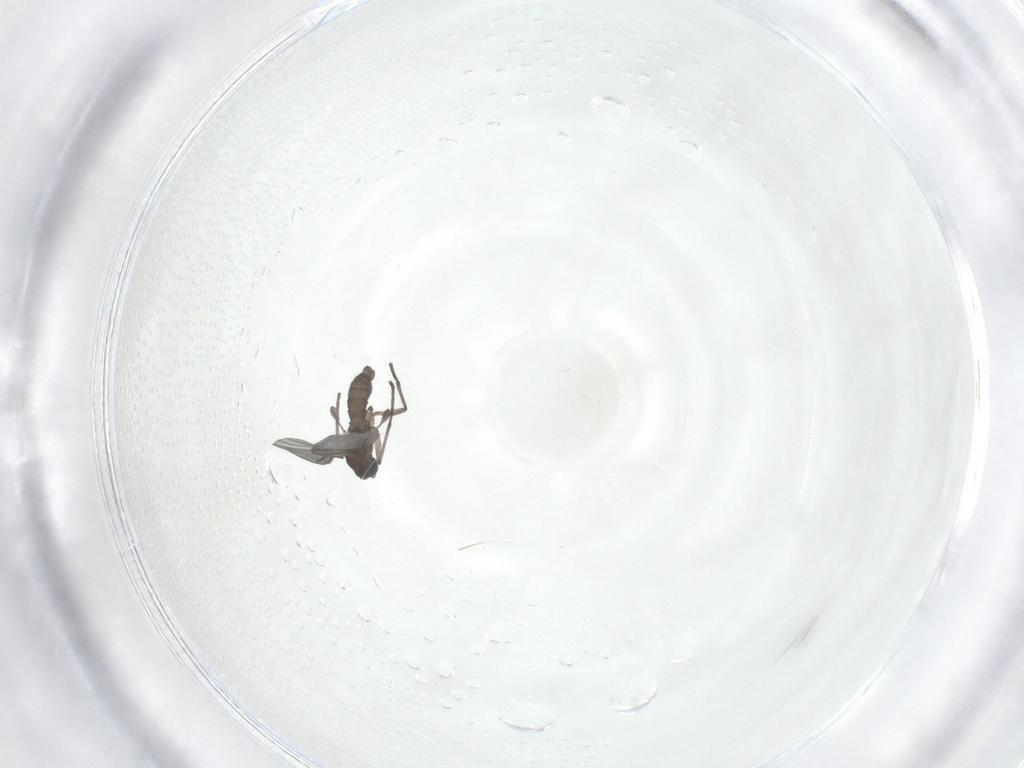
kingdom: Animalia
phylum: Arthropoda
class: Insecta
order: Diptera
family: Sciaridae
